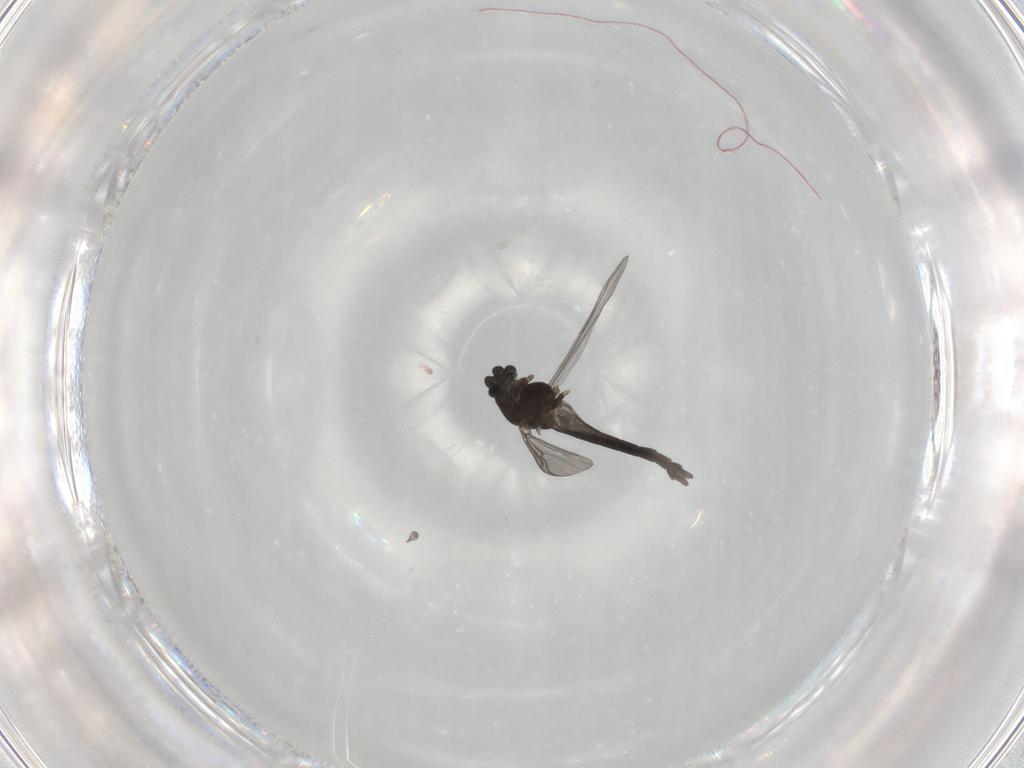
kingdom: Animalia
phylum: Arthropoda
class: Insecta
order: Diptera
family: Chironomidae
